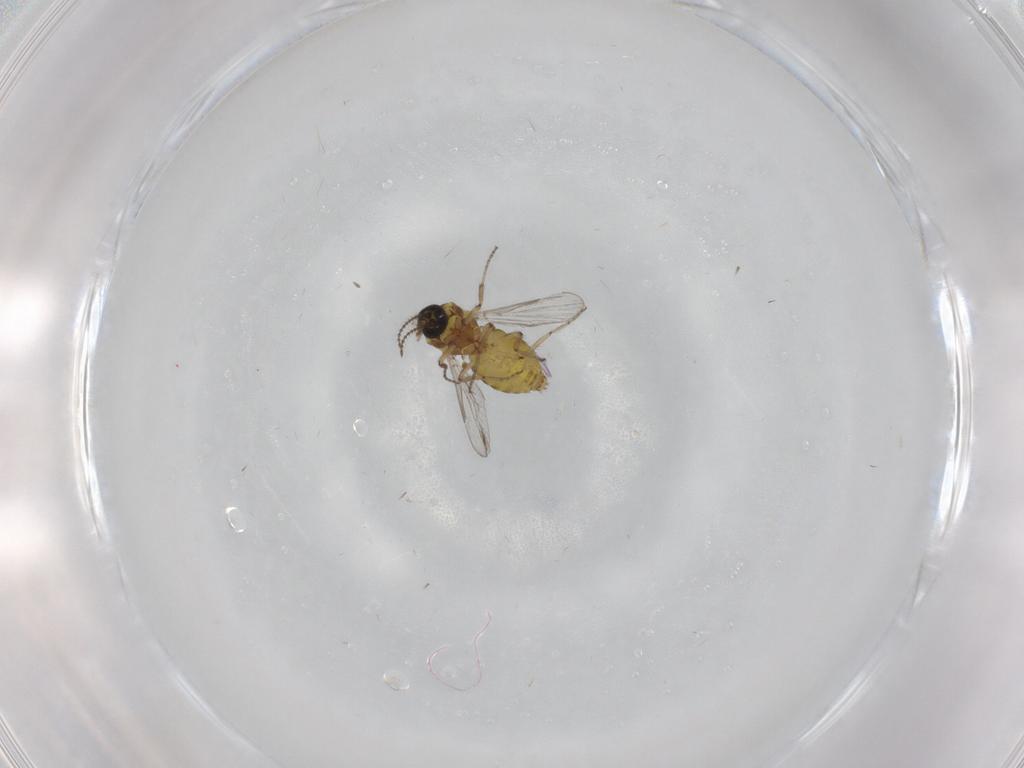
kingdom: Animalia
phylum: Arthropoda
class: Insecta
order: Diptera
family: Ceratopogonidae
